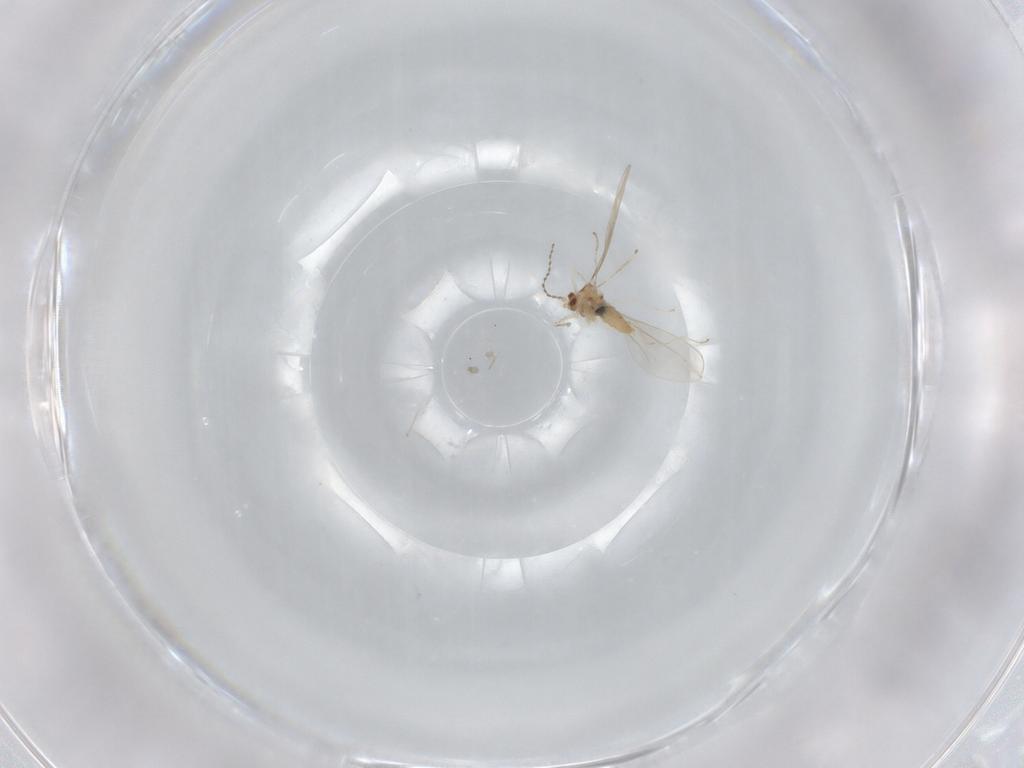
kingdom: Animalia
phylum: Arthropoda
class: Insecta
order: Diptera
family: Cecidomyiidae
